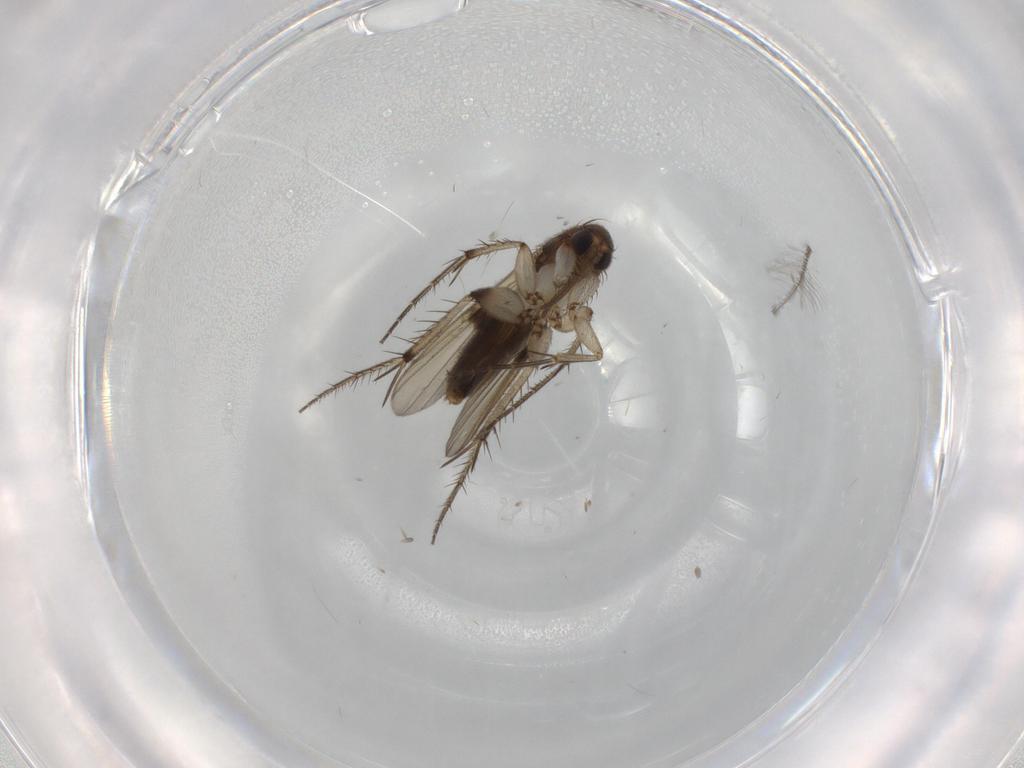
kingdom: Animalia
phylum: Arthropoda
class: Insecta
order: Diptera
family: Mycetophilidae
